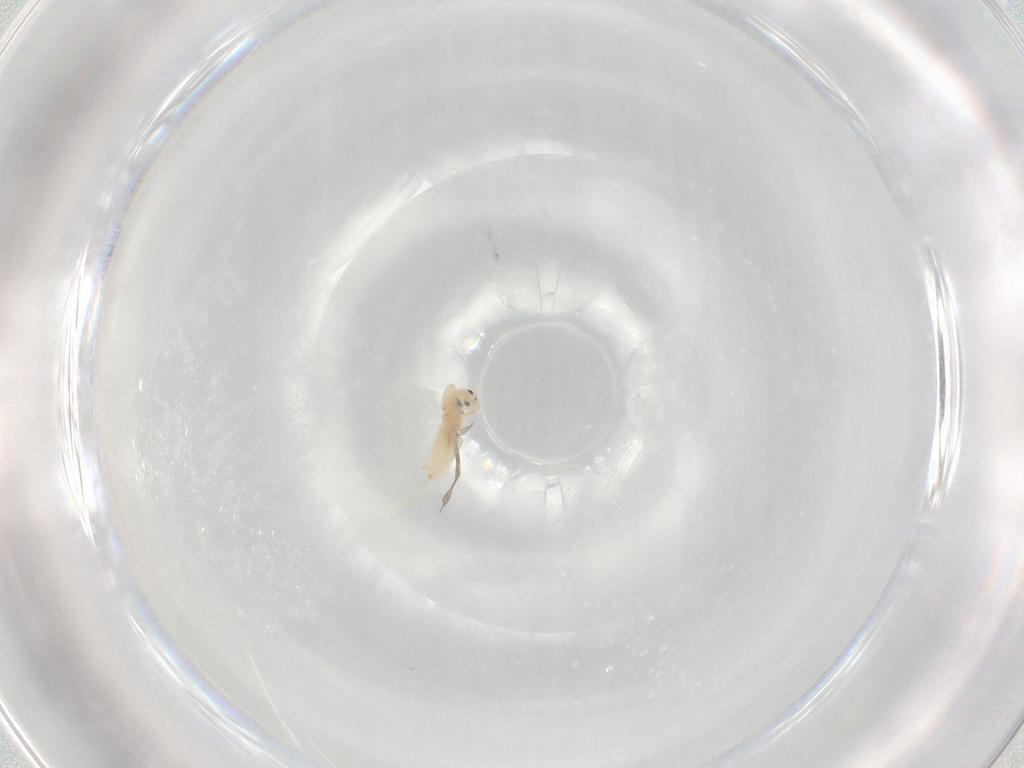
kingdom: Animalia
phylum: Arthropoda
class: Collembola
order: Entomobryomorpha
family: Entomobryidae
